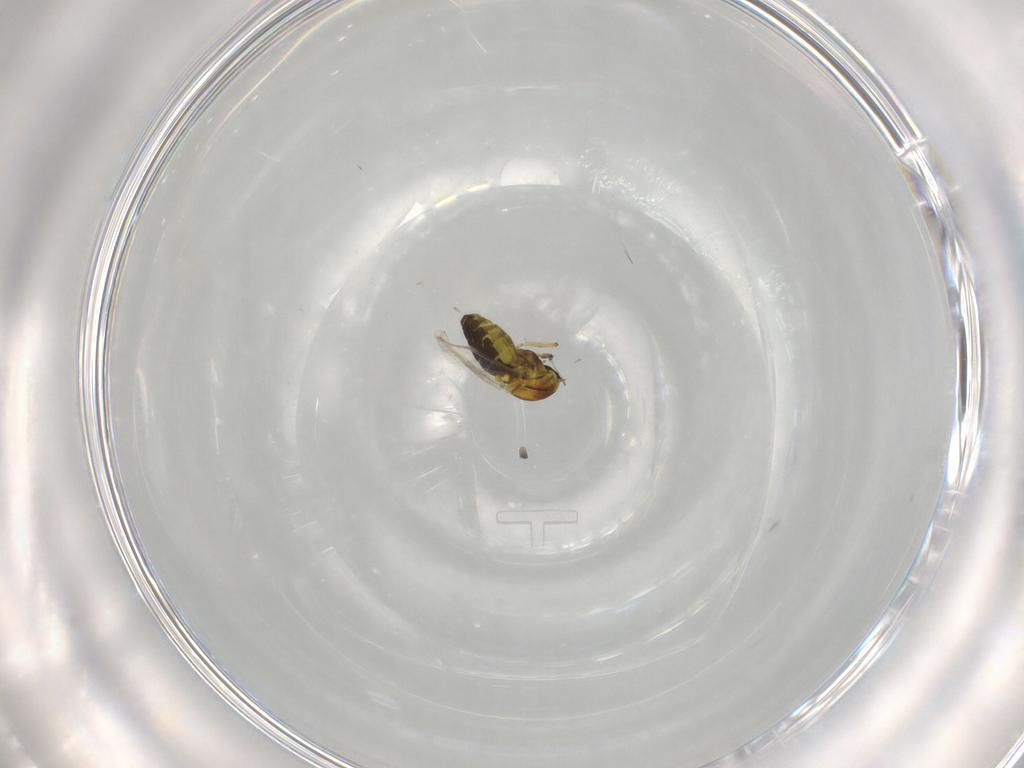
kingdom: Animalia
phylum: Arthropoda
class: Insecta
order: Diptera
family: Ceratopogonidae
